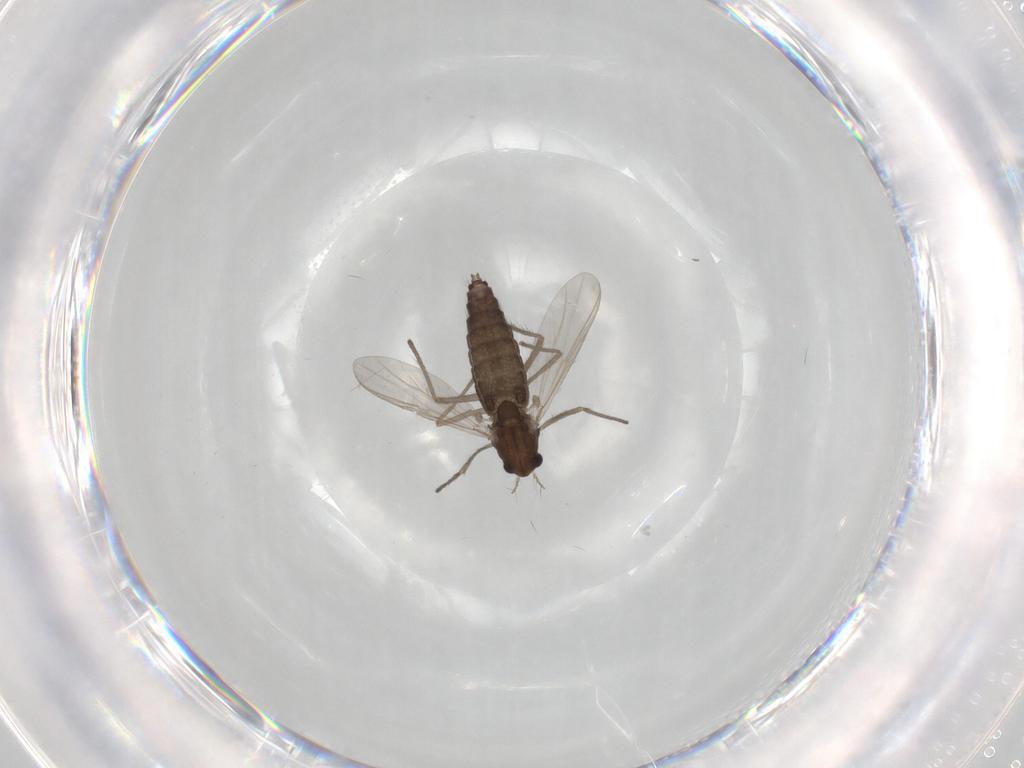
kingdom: Animalia
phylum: Arthropoda
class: Insecta
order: Diptera
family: Chironomidae
